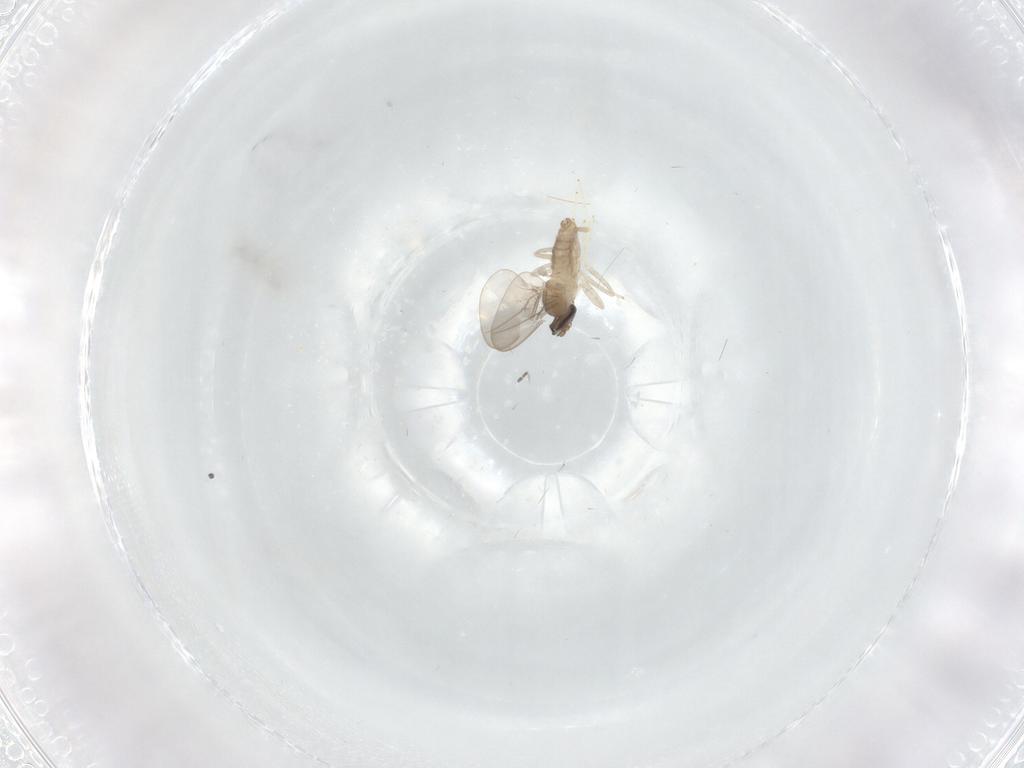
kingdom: Animalia
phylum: Arthropoda
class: Insecta
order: Diptera
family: Cecidomyiidae
